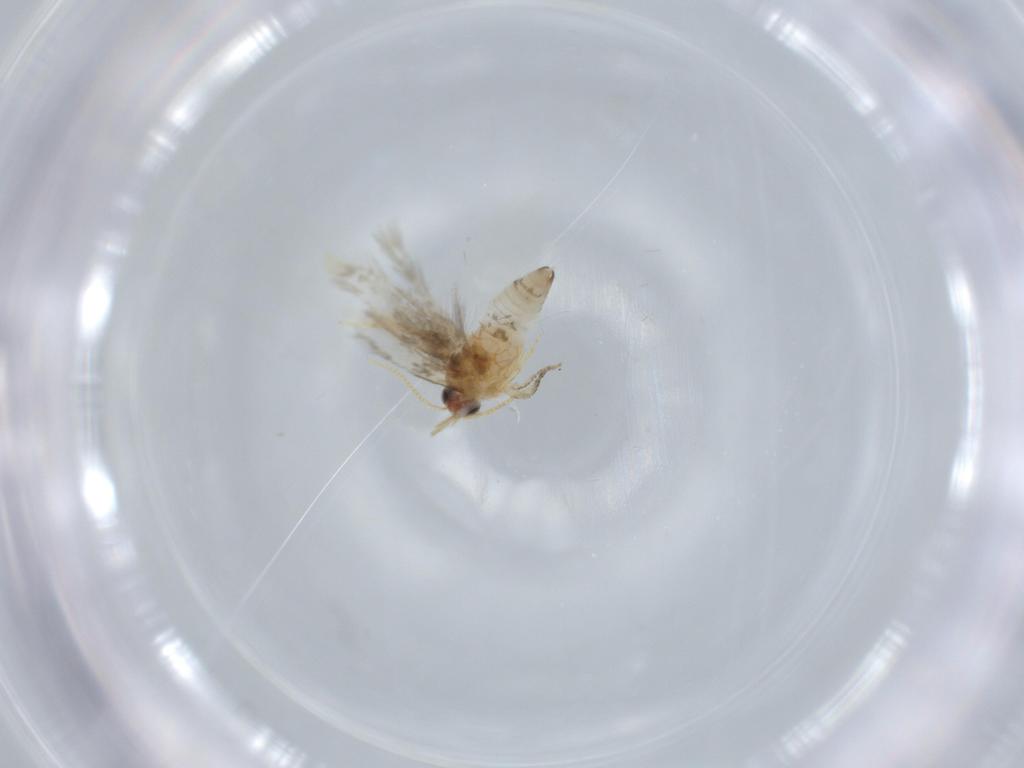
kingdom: Animalia
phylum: Arthropoda
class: Insecta
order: Lepidoptera
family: Copromorphidae
